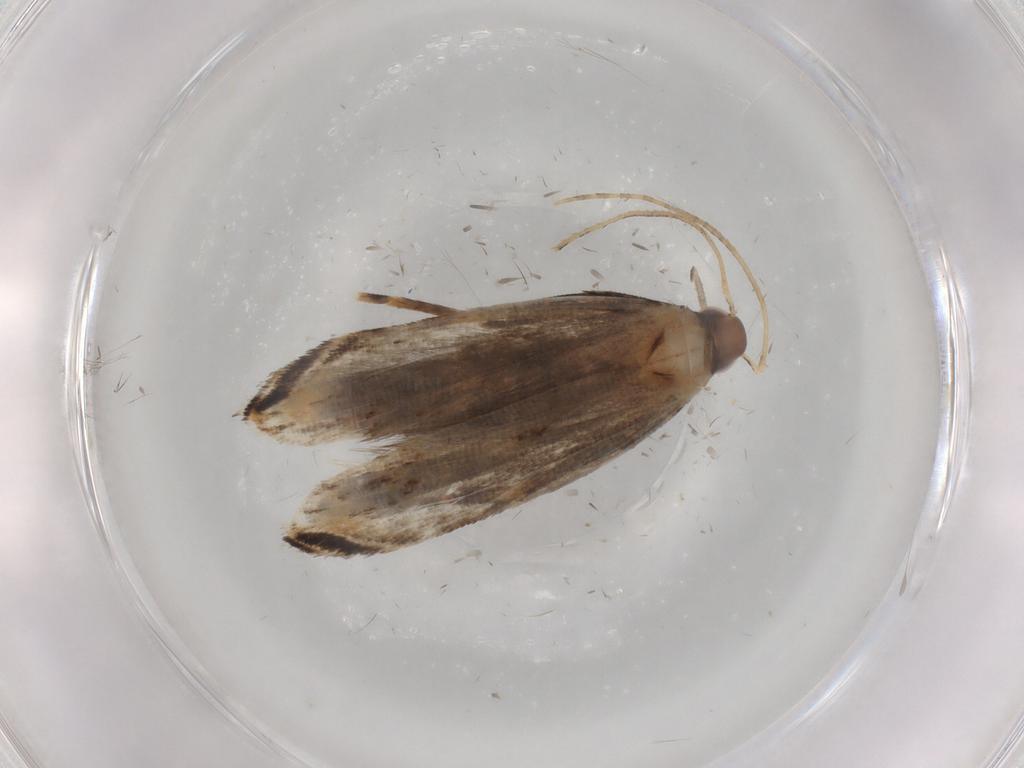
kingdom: Animalia
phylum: Arthropoda
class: Insecta
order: Lepidoptera
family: Gelechiidae
